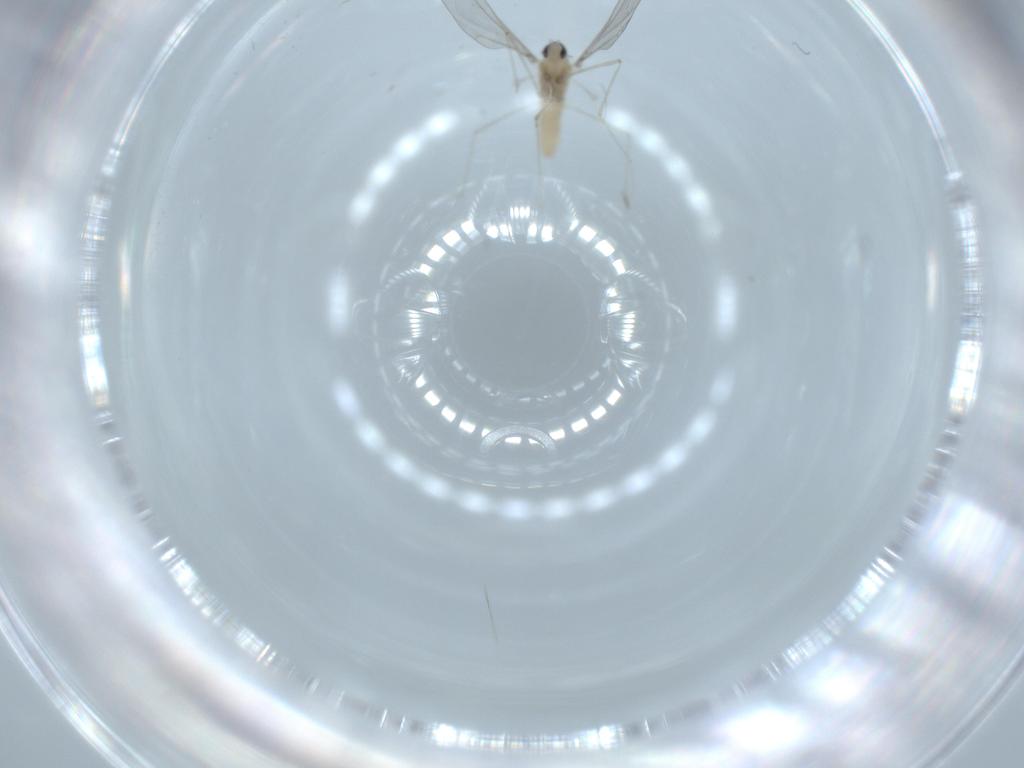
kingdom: Animalia
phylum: Arthropoda
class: Insecta
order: Diptera
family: Cecidomyiidae
